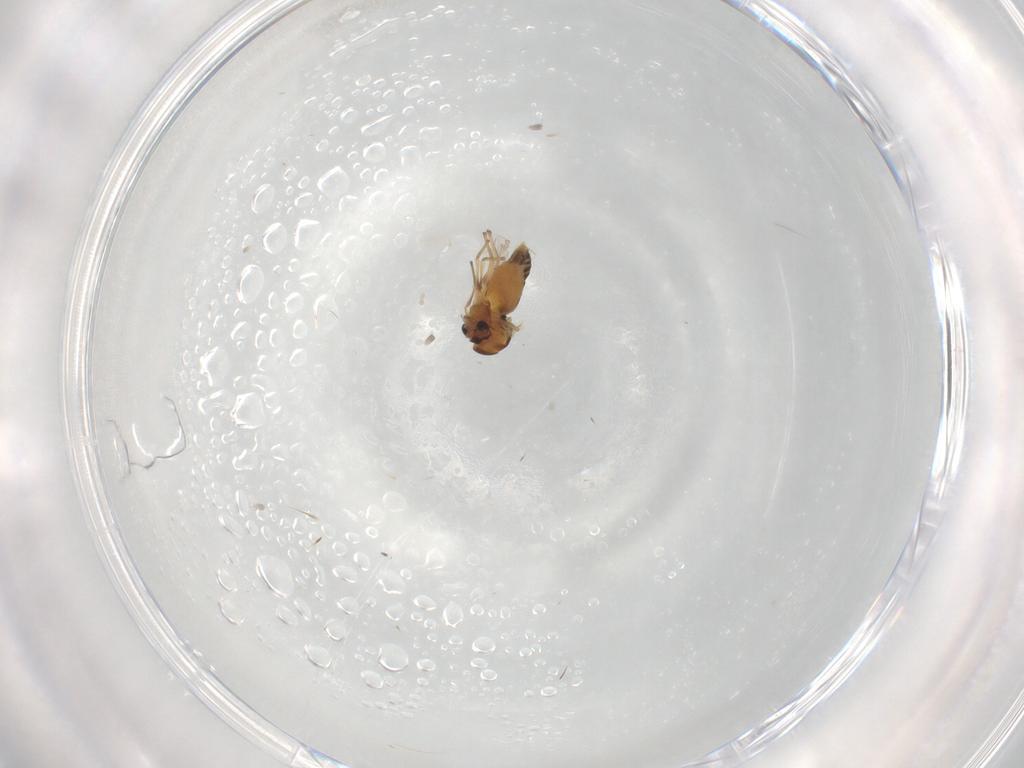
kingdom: Animalia
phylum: Arthropoda
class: Insecta
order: Diptera
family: Chironomidae
